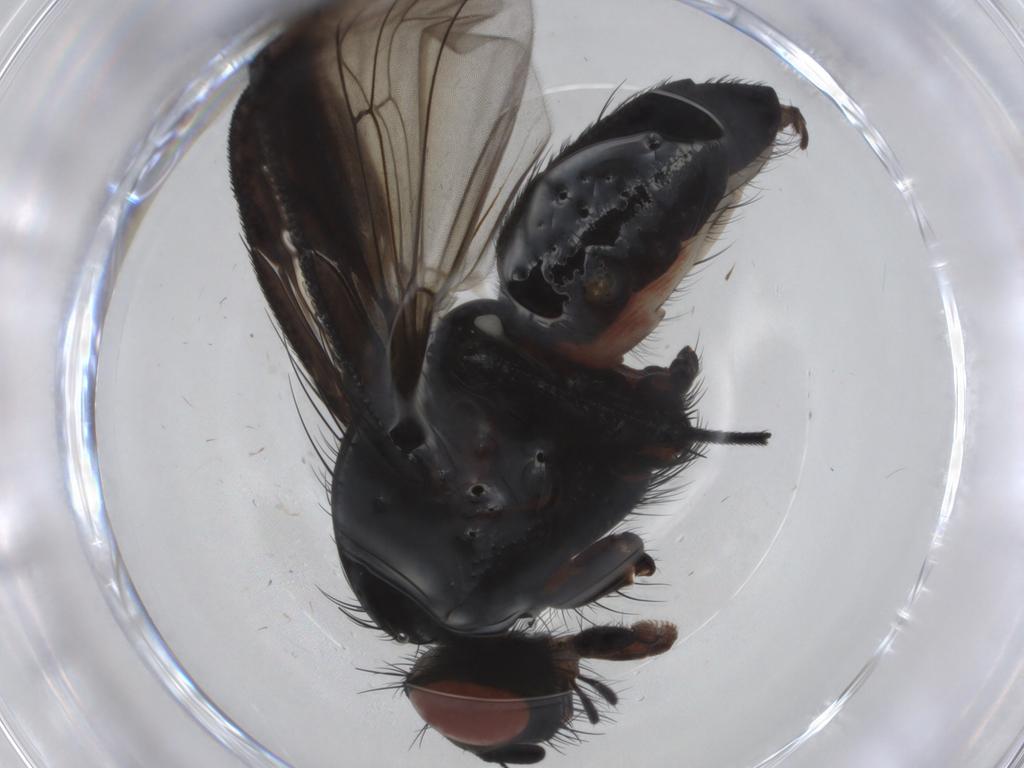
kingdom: Animalia
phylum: Arthropoda
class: Insecta
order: Diptera
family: Anthomyiidae
